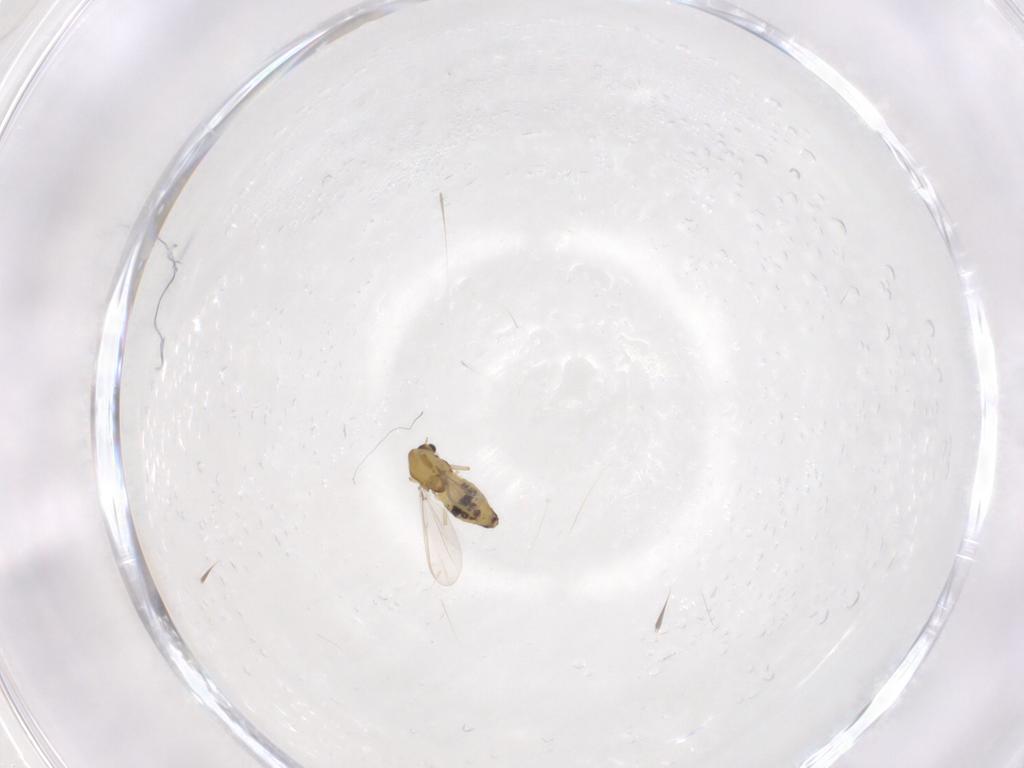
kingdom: Animalia
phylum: Arthropoda
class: Insecta
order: Diptera
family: Chironomidae
